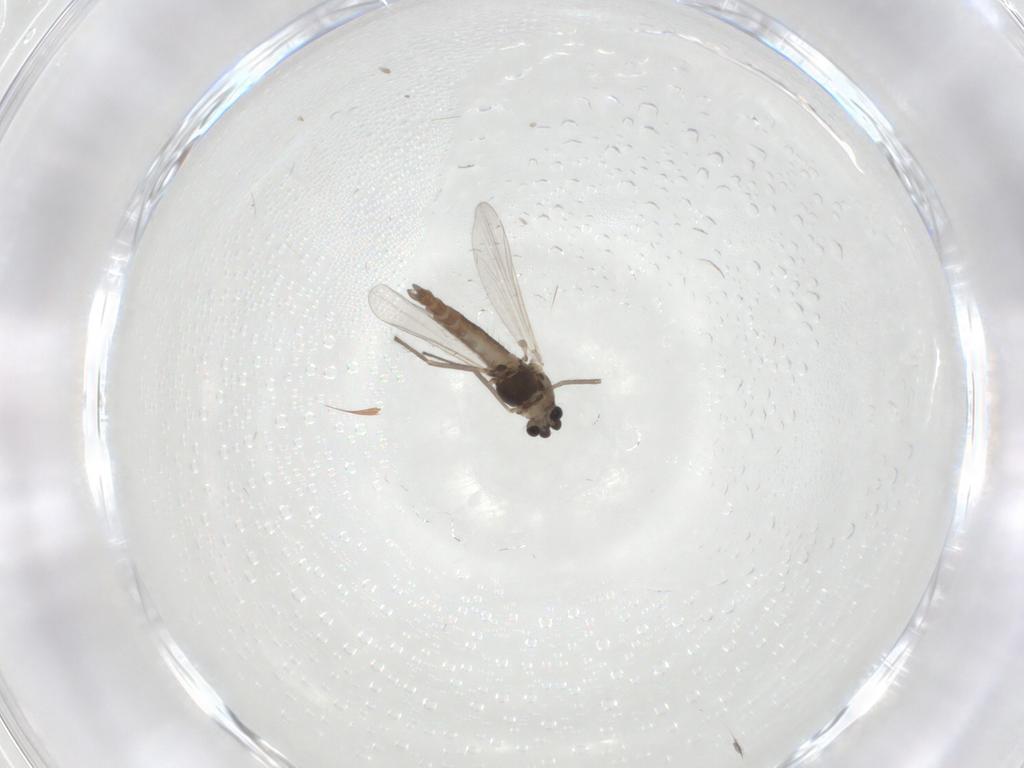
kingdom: Animalia
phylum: Arthropoda
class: Insecta
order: Diptera
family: Chironomidae
